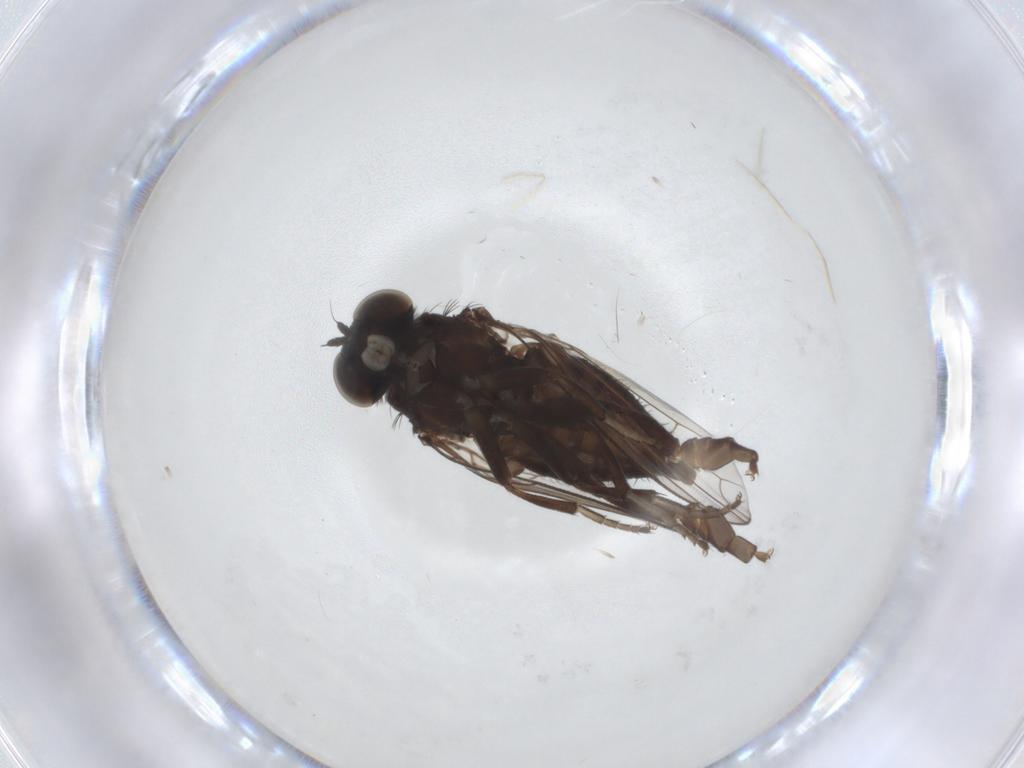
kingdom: Animalia
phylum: Arthropoda
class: Insecta
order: Diptera
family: Platypezidae
